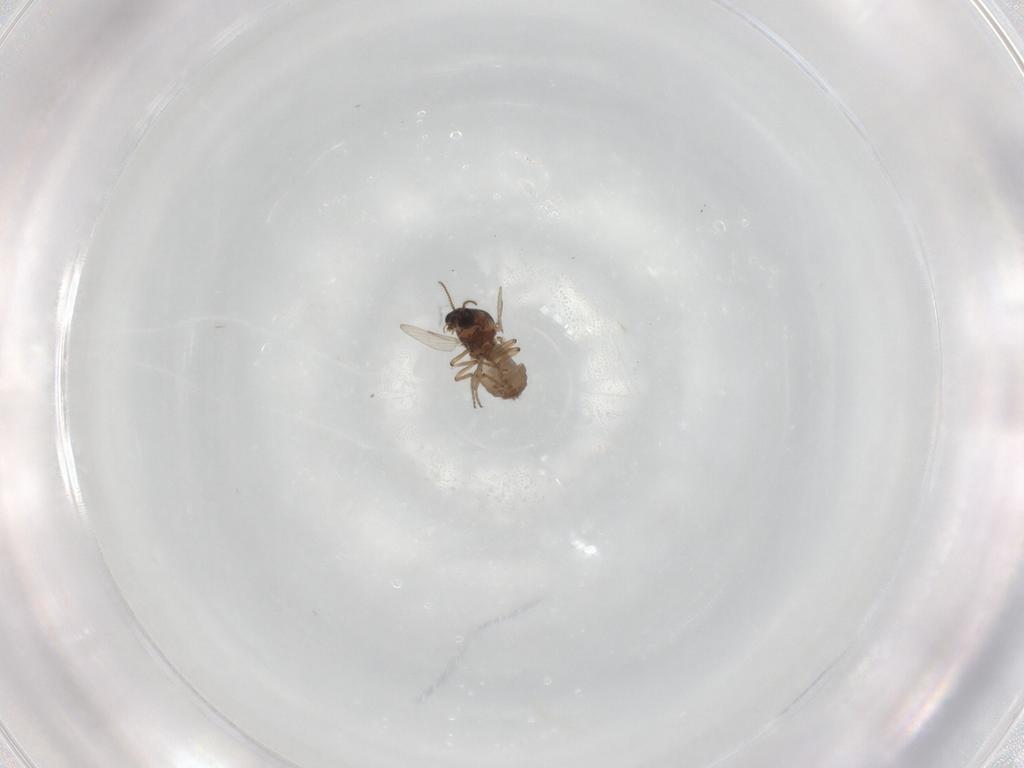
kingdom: Animalia
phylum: Arthropoda
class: Insecta
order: Diptera
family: Ceratopogonidae
